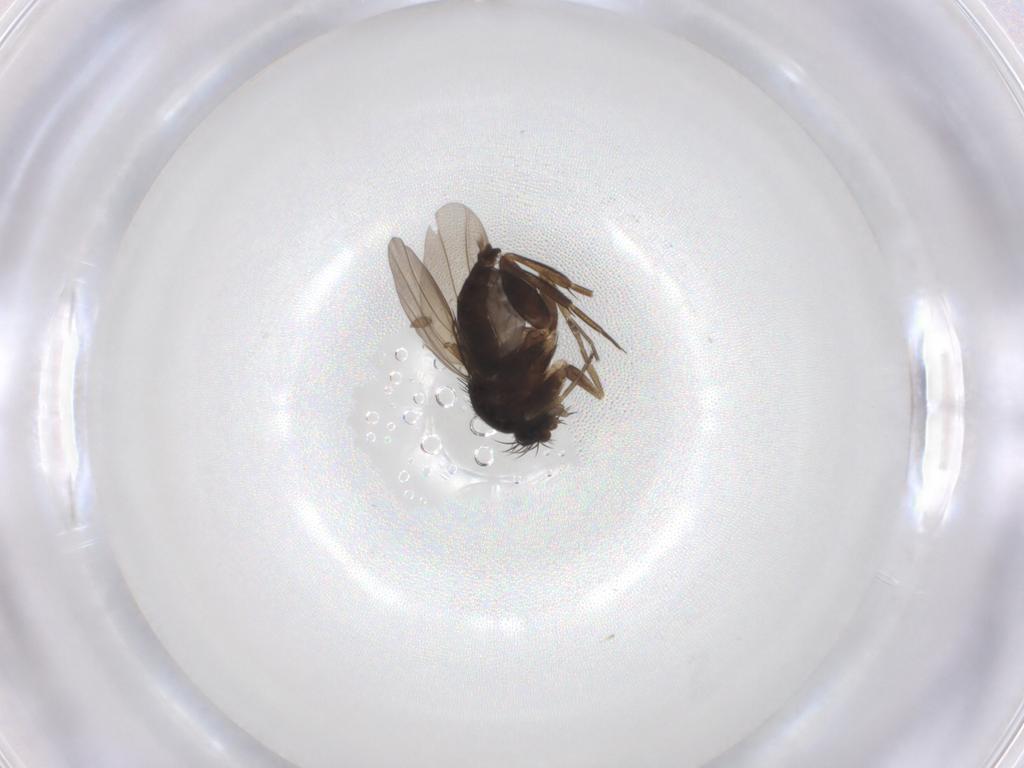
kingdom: Animalia
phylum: Arthropoda
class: Insecta
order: Diptera
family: Phoridae
